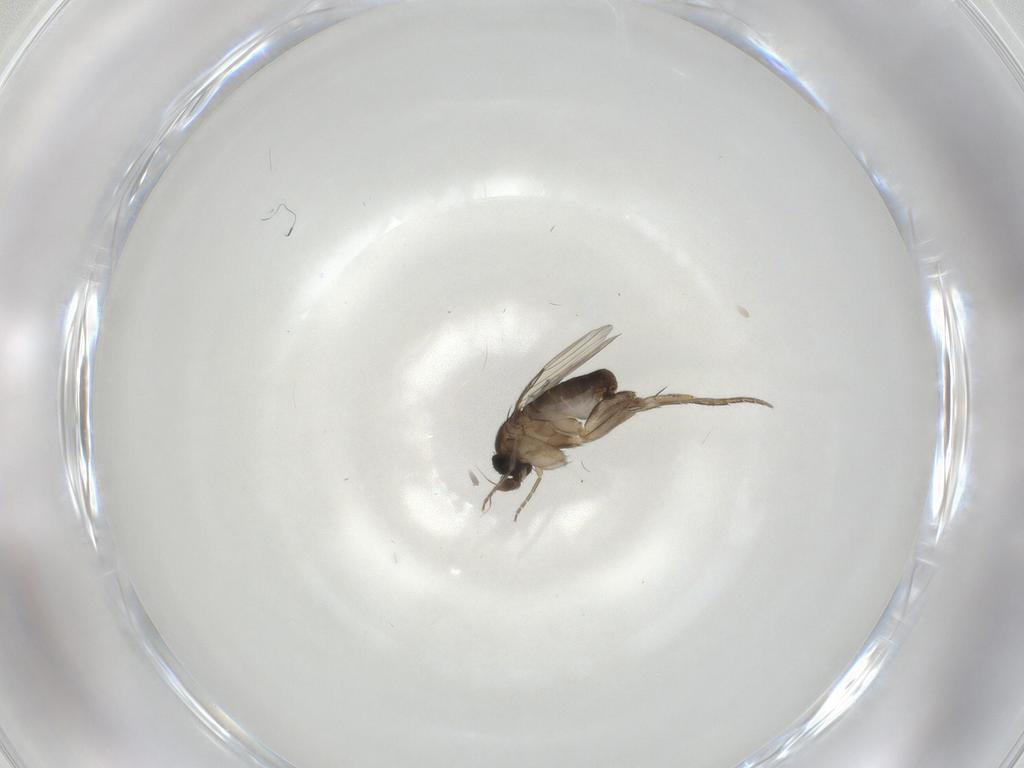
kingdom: Animalia
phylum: Arthropoda
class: Insecta
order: Diptera
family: Phoridae
